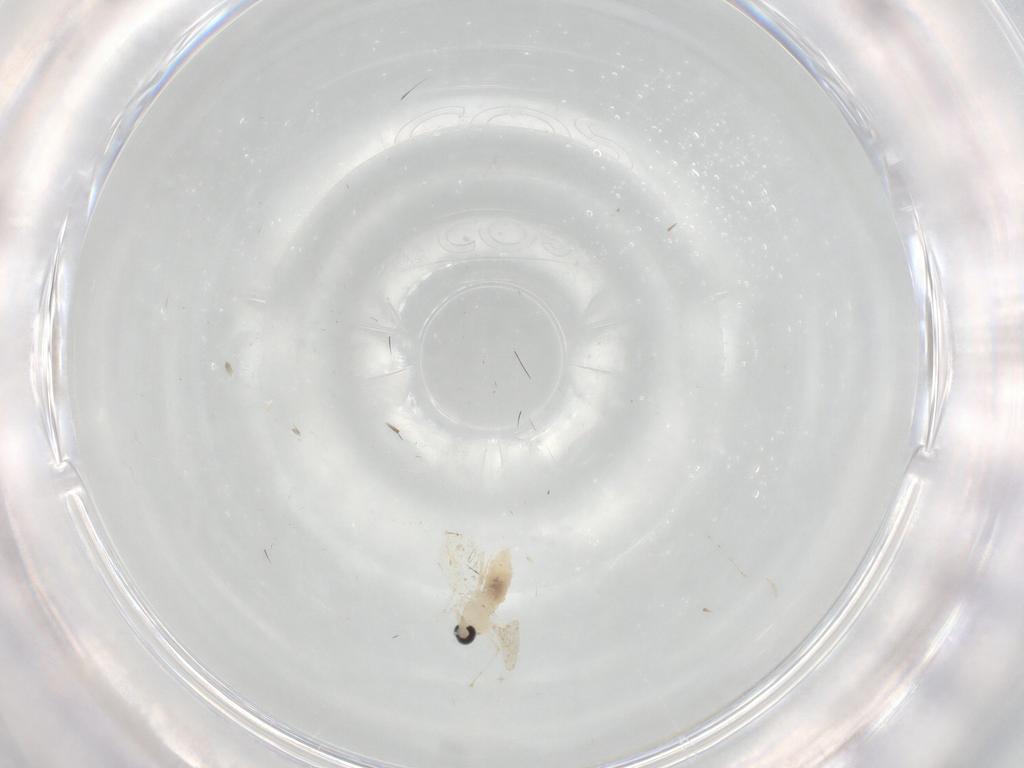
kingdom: Animalia
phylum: Arthropoda
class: Insecta
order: Diptera
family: Cecidomyiidae
